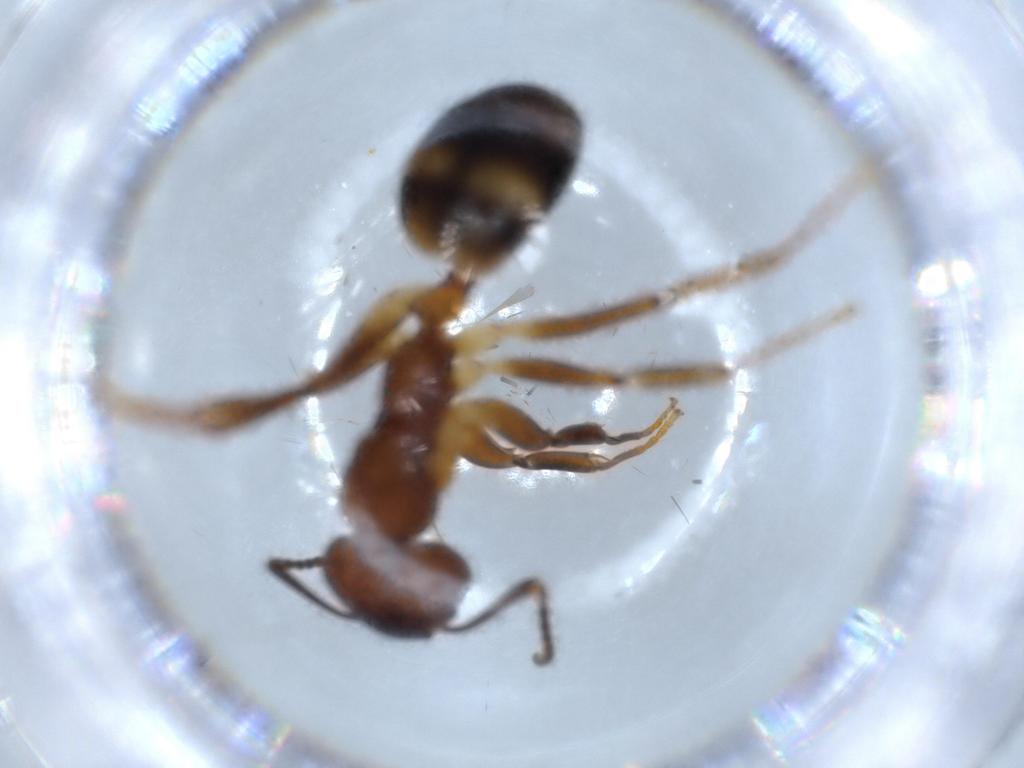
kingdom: Animalia
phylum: Arthropoda
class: Insecta
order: Hymenoptera
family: Formicidae
